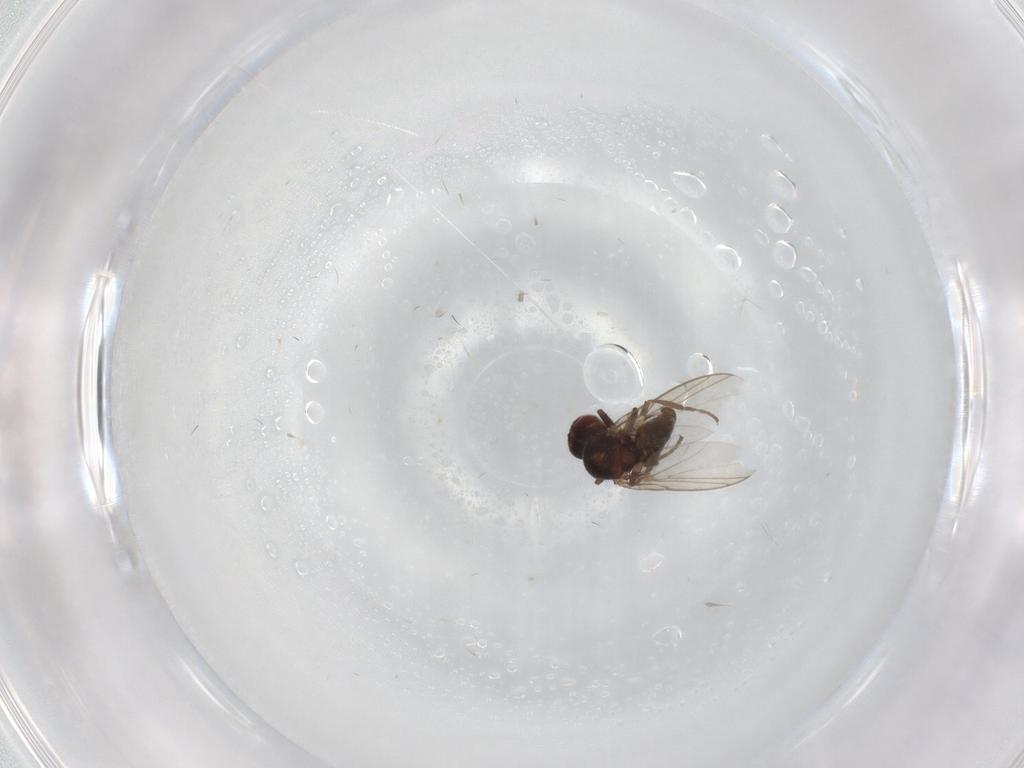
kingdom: Animalia
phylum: Arthropoda
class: Insecta
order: Diptera
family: Agromyzidae
